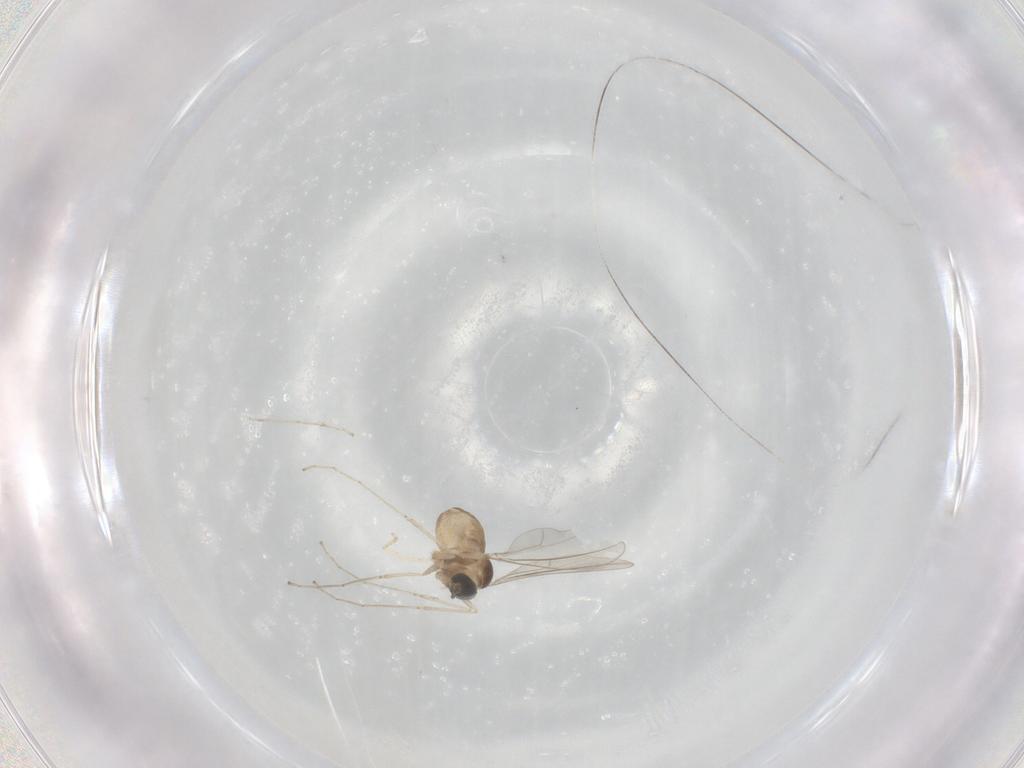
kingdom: Animalia
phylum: Arthropoda
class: Insecta
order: Diptera
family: Cecidomyiidae
